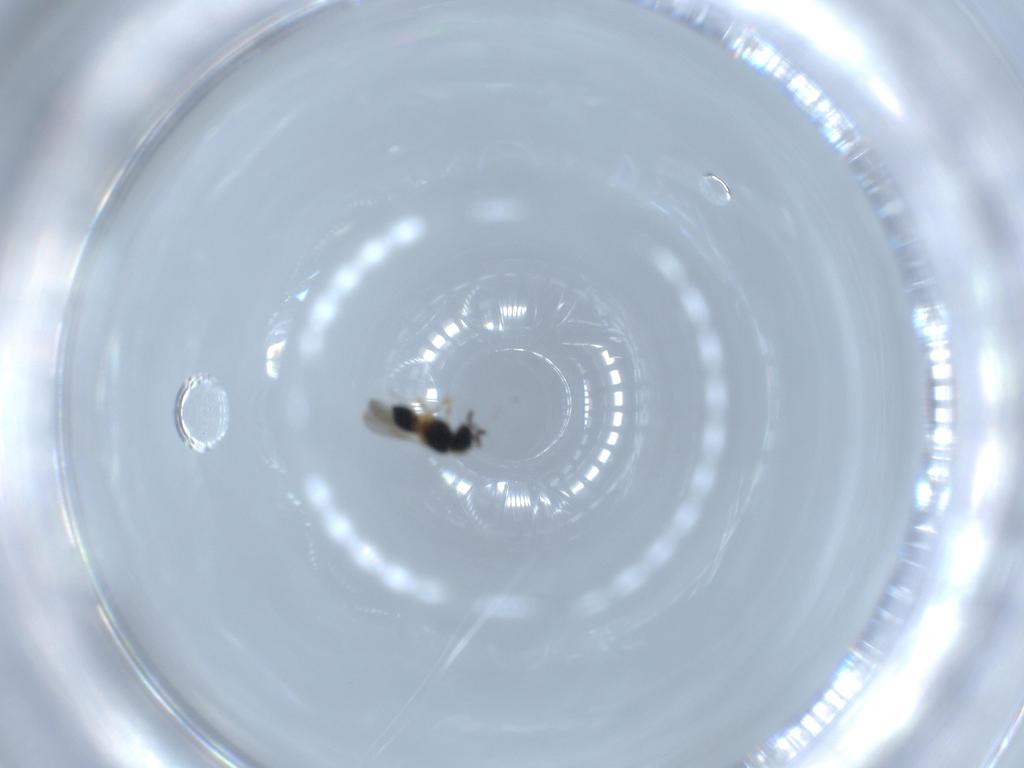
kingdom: Animalia
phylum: Arthropoda
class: Insecta
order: Hymenoptera
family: Scelionidae
